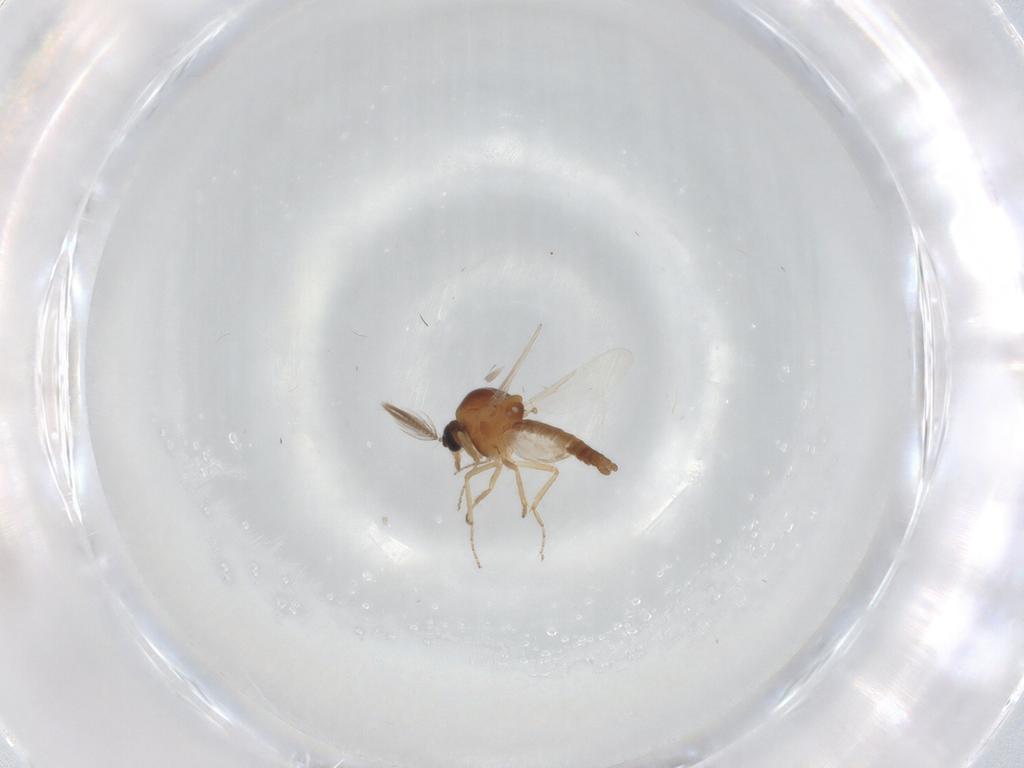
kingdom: Animalia
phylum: Arthropoda
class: Insecta
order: Diptera
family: Ceratopogonidae
